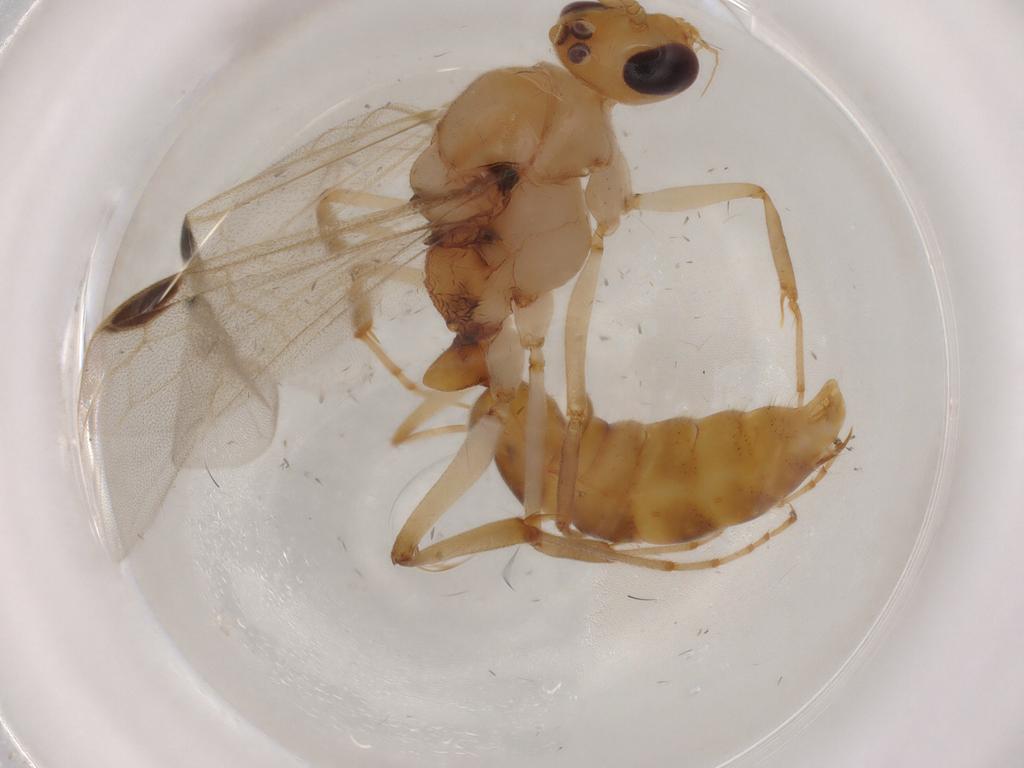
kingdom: Animalia
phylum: Arthropoda
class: Insecta
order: Hymenoptera
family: Formicidae
